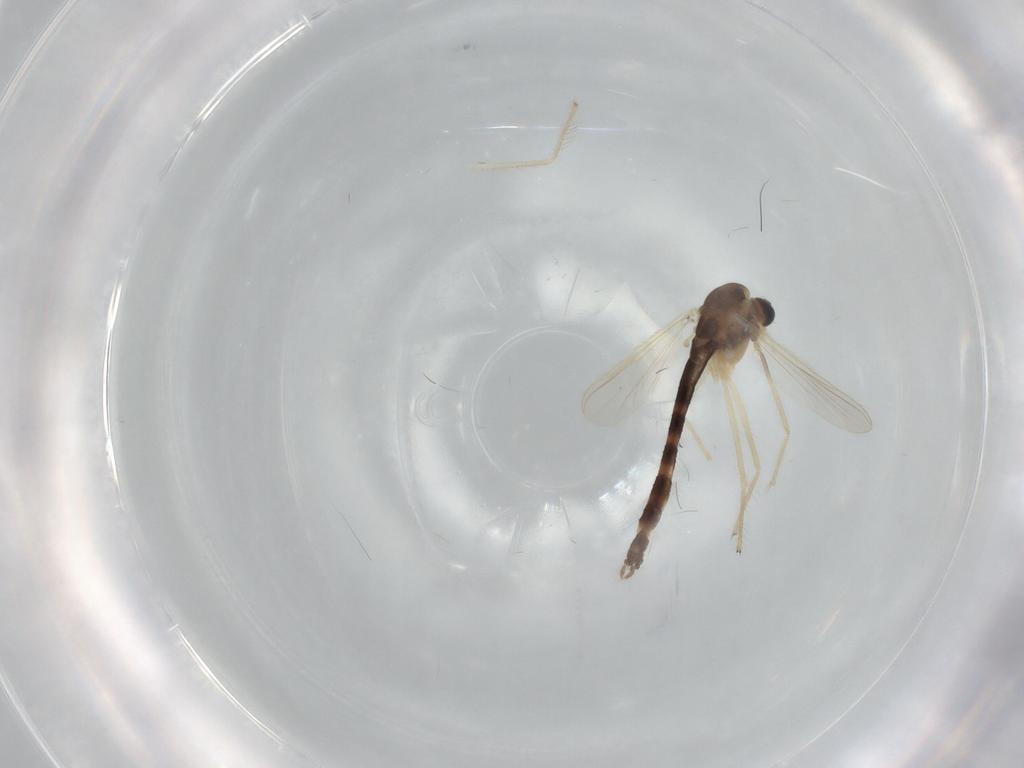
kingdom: Animalia
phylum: Arthropoda
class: Insecta
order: Diptera
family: Chironomidae
